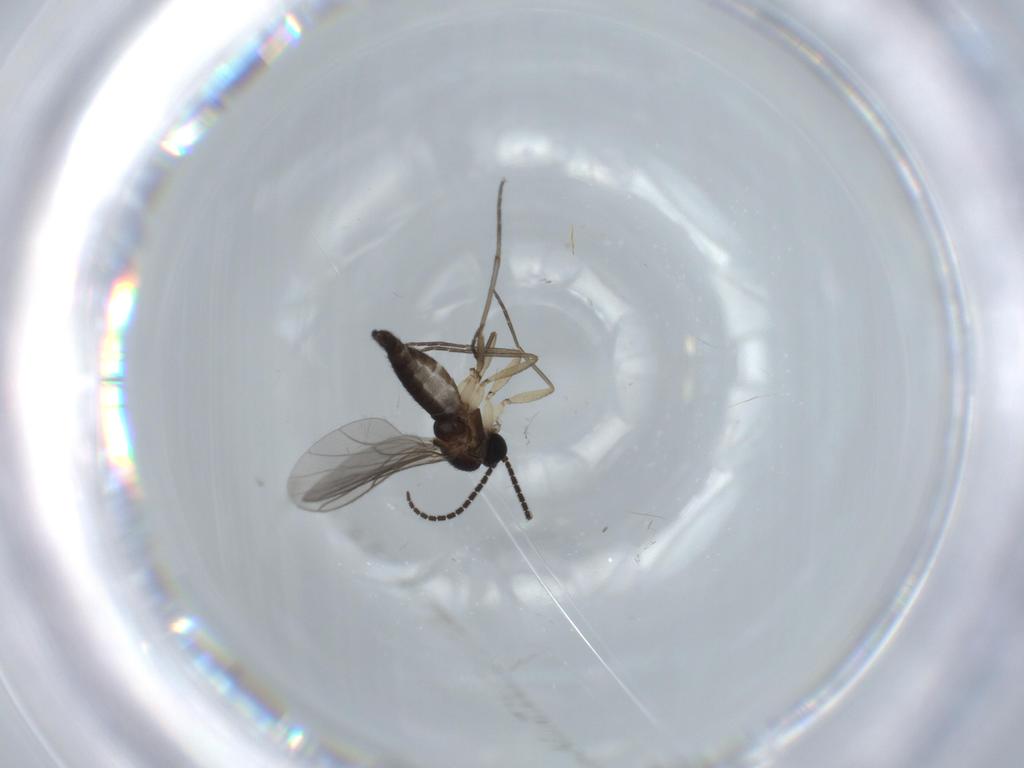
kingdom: Animalia
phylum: Arthropoda
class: Insecta
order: Diptera
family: Sciaridae
